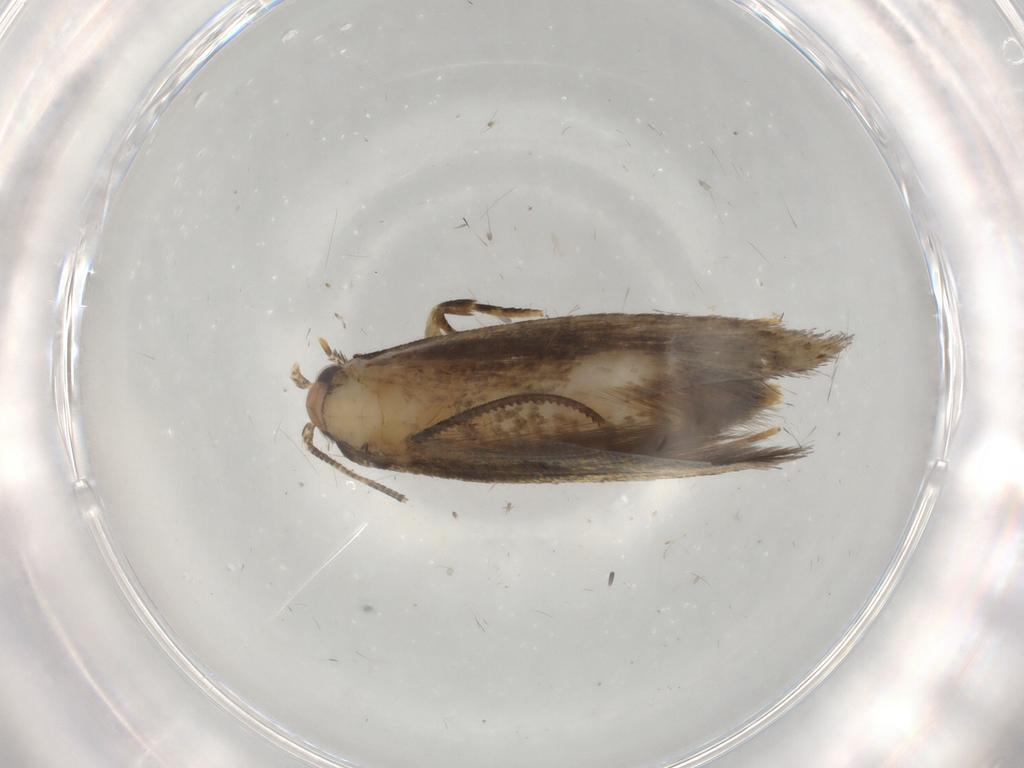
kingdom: Animalia
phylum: Arthropoda
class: Insecta
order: Lepidoptera
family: Tineidae
